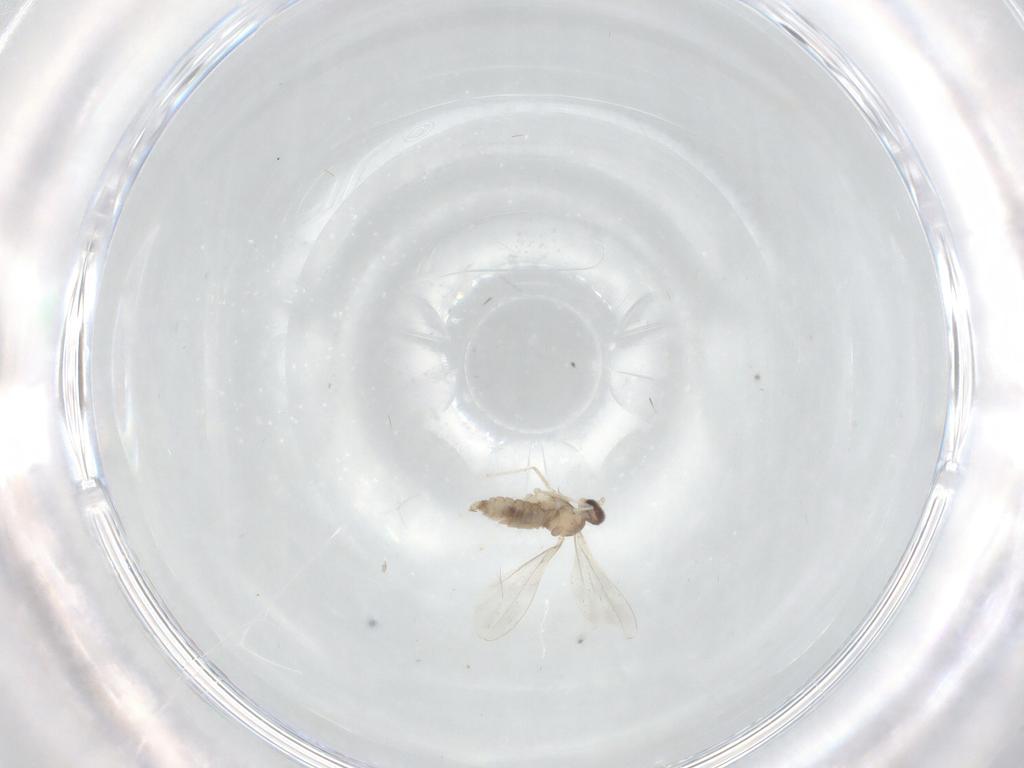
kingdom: Animalia
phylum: Arthropoda
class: Insecta
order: Diptera
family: Cecidomyiidae
